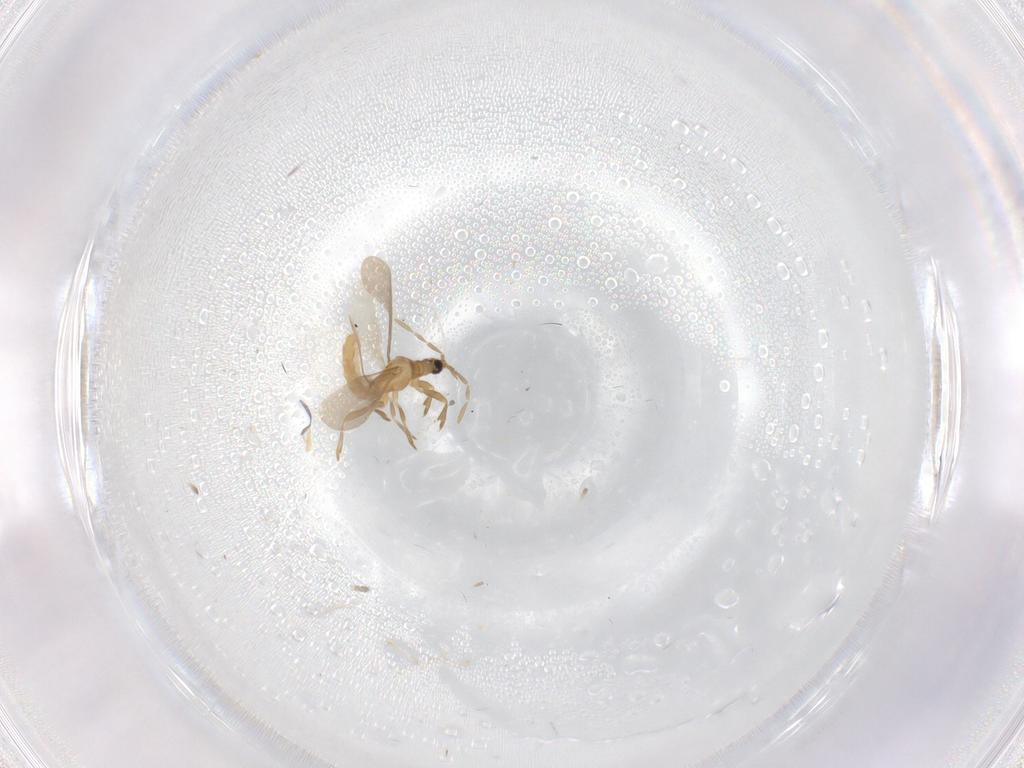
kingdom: Animalia
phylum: Arthropoda
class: Insecta
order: Hemiptera
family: Enicocephalidae
